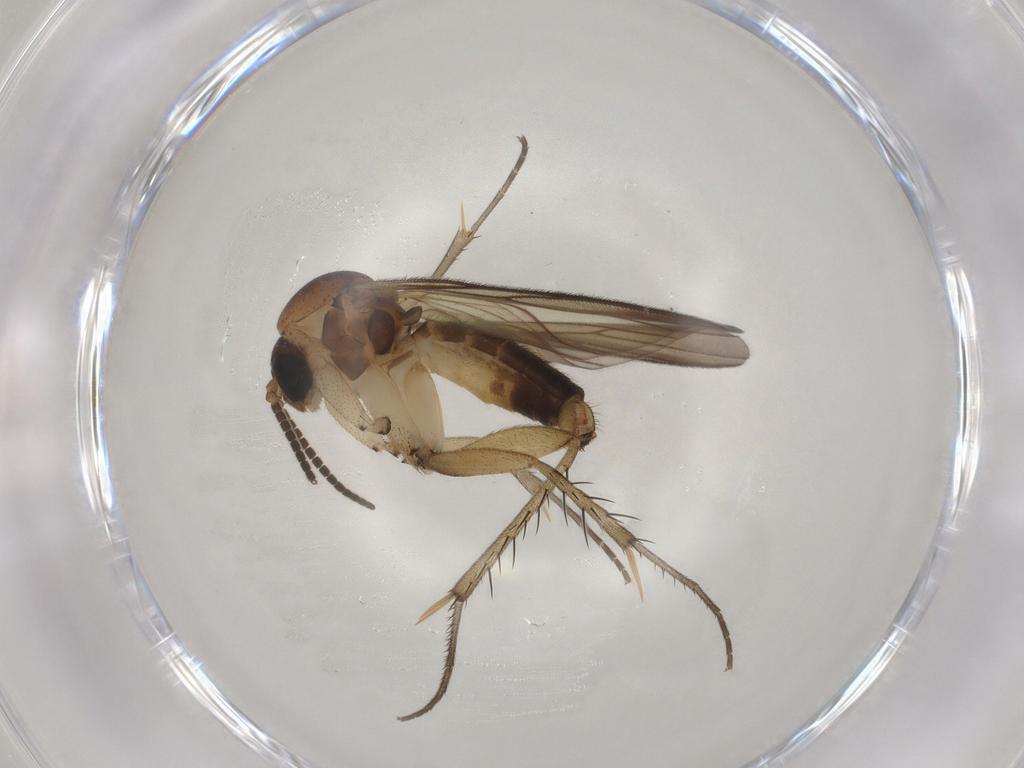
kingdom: Animalia
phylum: Arthropoda
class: Insecta
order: Diptera
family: Mycetophilidae
